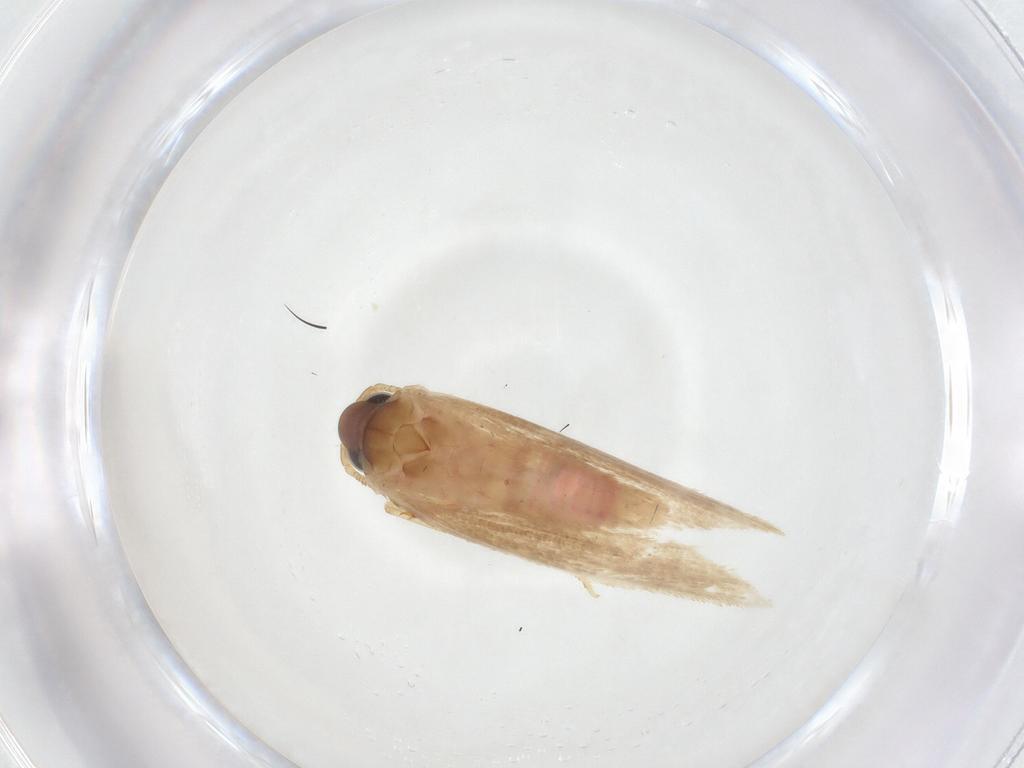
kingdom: Animalia
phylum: Arthropoda
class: Insecta
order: Lepidoptera
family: Autostichidae
